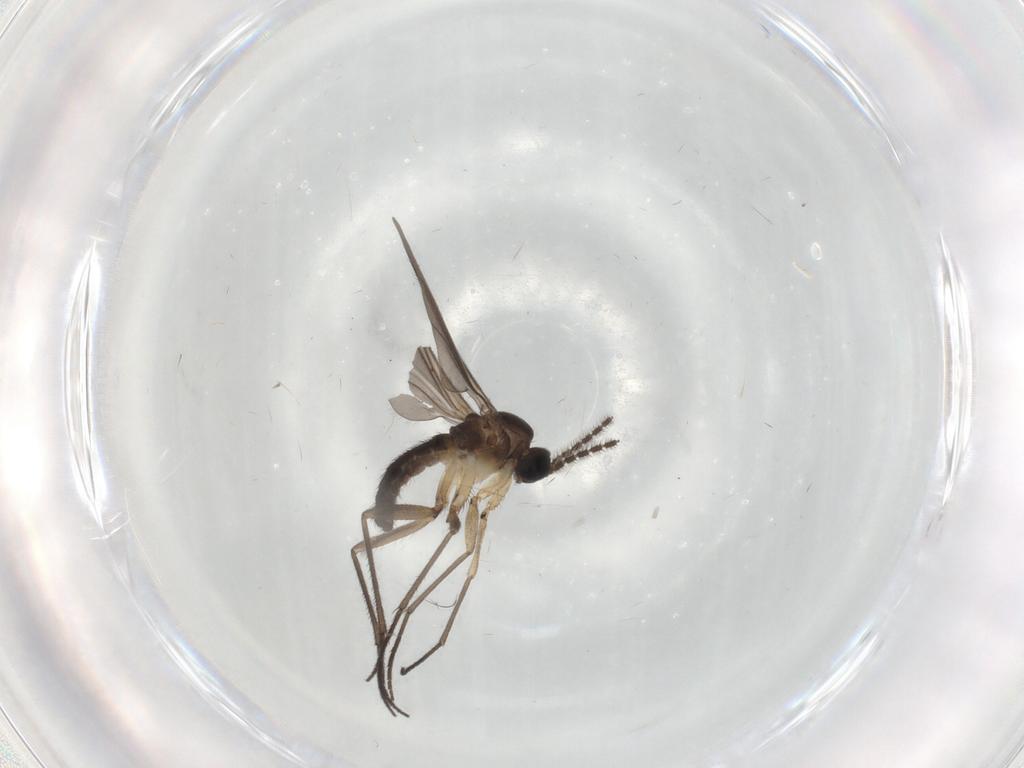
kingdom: Animalia
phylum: Arthropoda
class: Insecta
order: Diptera
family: Sciaridae
